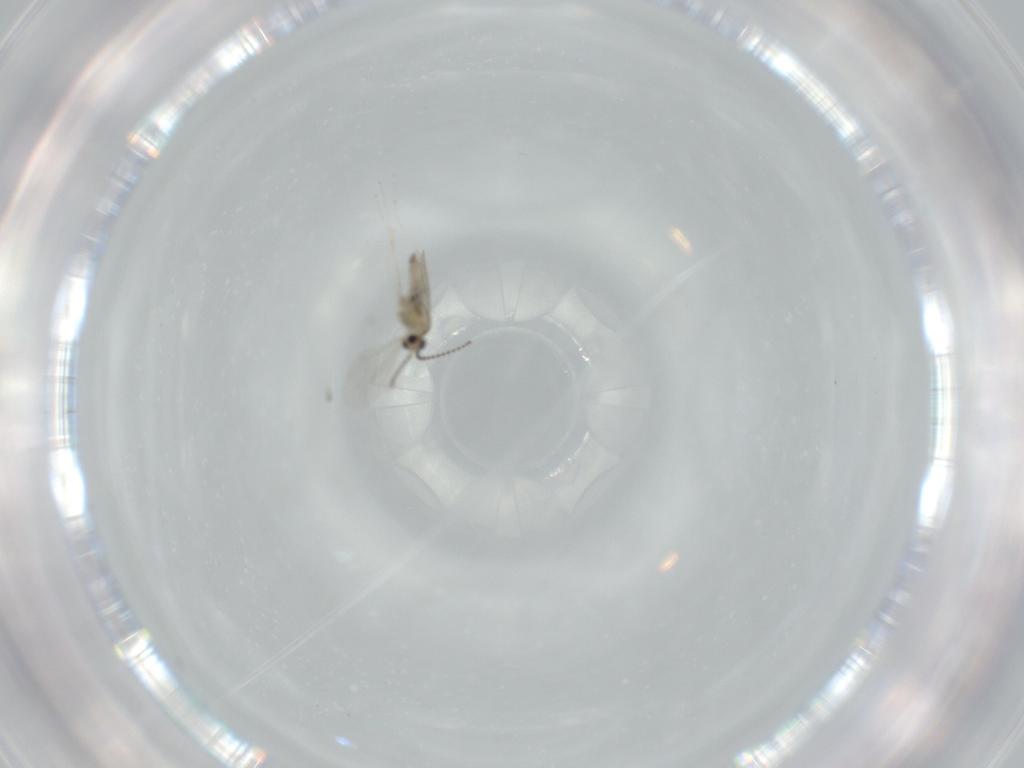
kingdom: Animalia
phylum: Arthropoda
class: Insecta
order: Diptera
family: Cecidomyiidae
